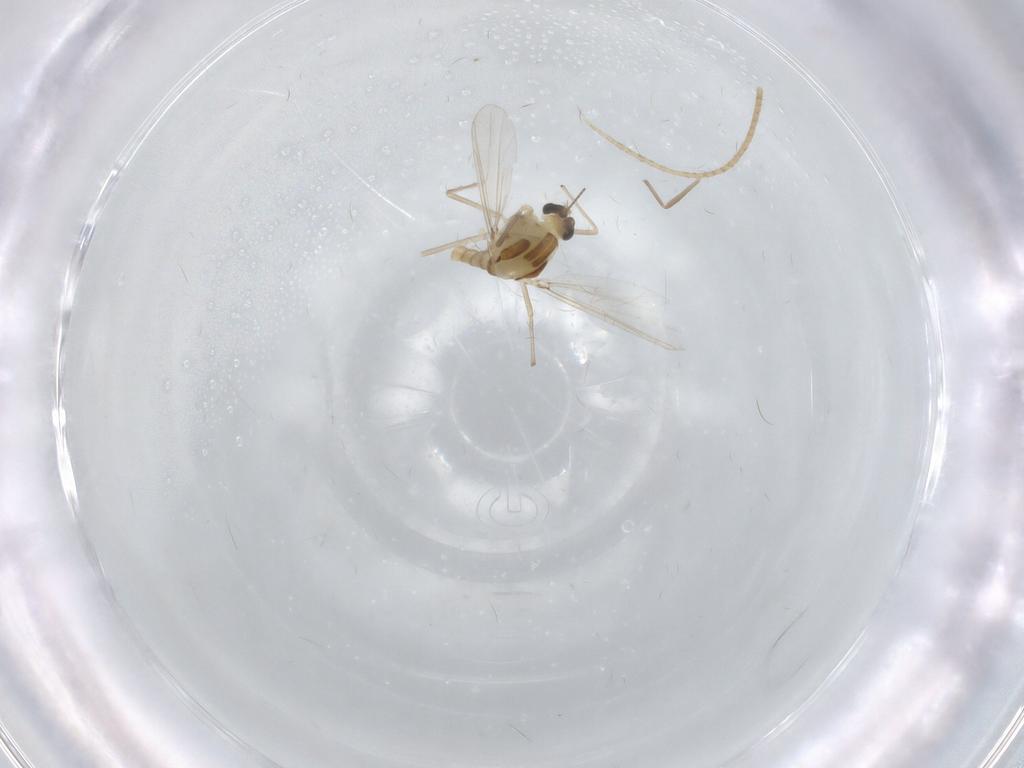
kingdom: Animalia
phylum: Arthropoda
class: Insecta
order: Diptera
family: Chironomidae
